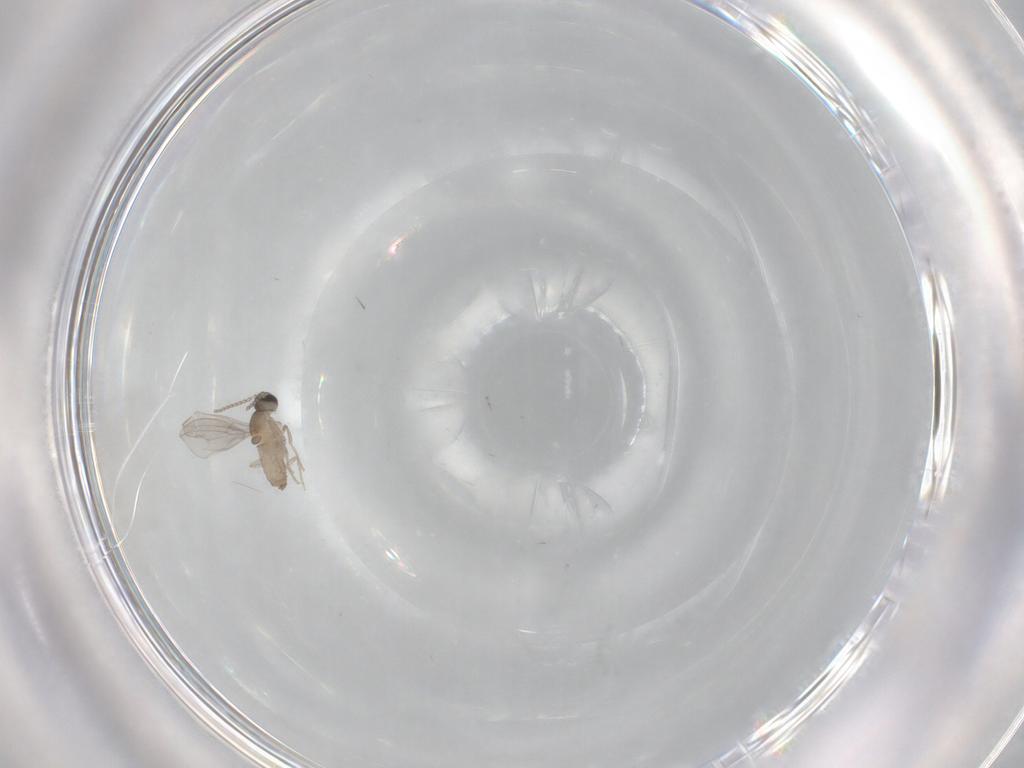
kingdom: Animalia
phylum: Arthropoda
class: Insecta
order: Diptera
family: Cecidomyiidae
